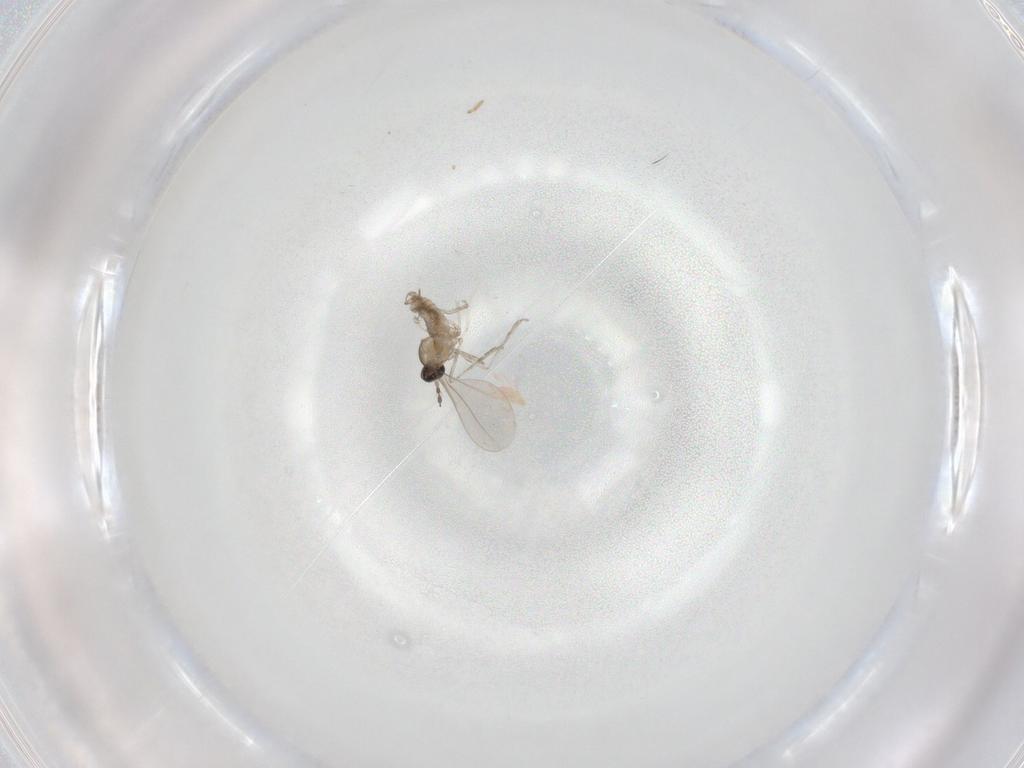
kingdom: Animalia
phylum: Arthropoda
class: Insecta
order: Diptera
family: Cecidomyiidae
